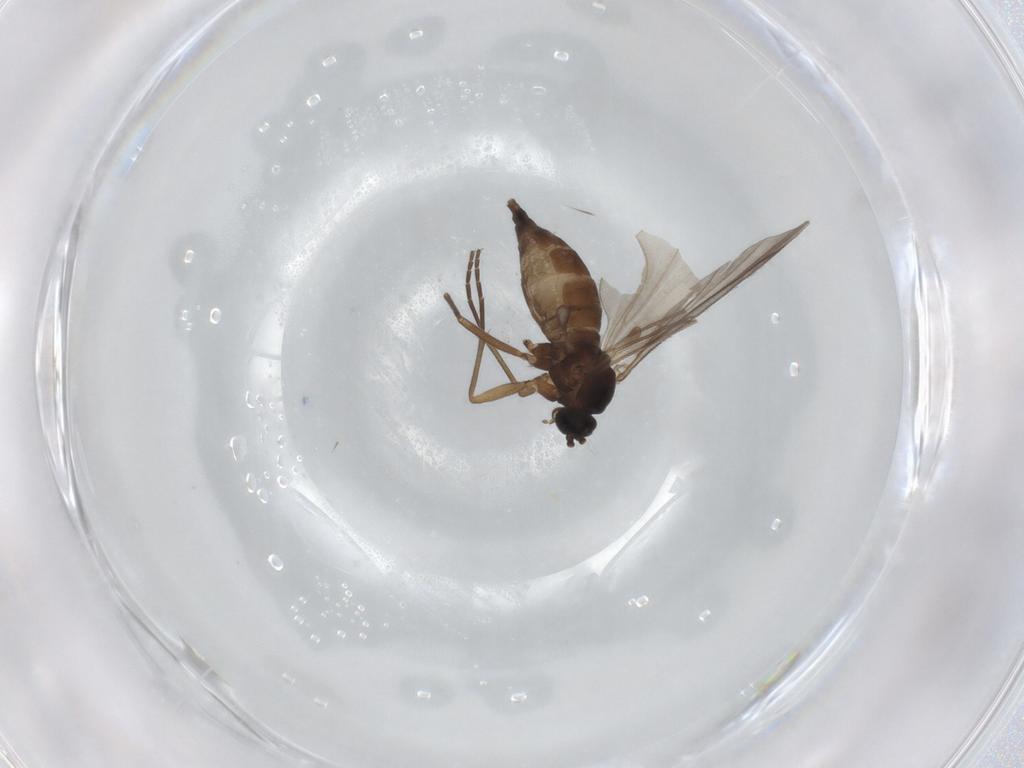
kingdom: Animalia
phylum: Arthropoda
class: Insecta
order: Diptera
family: Sciaridae
